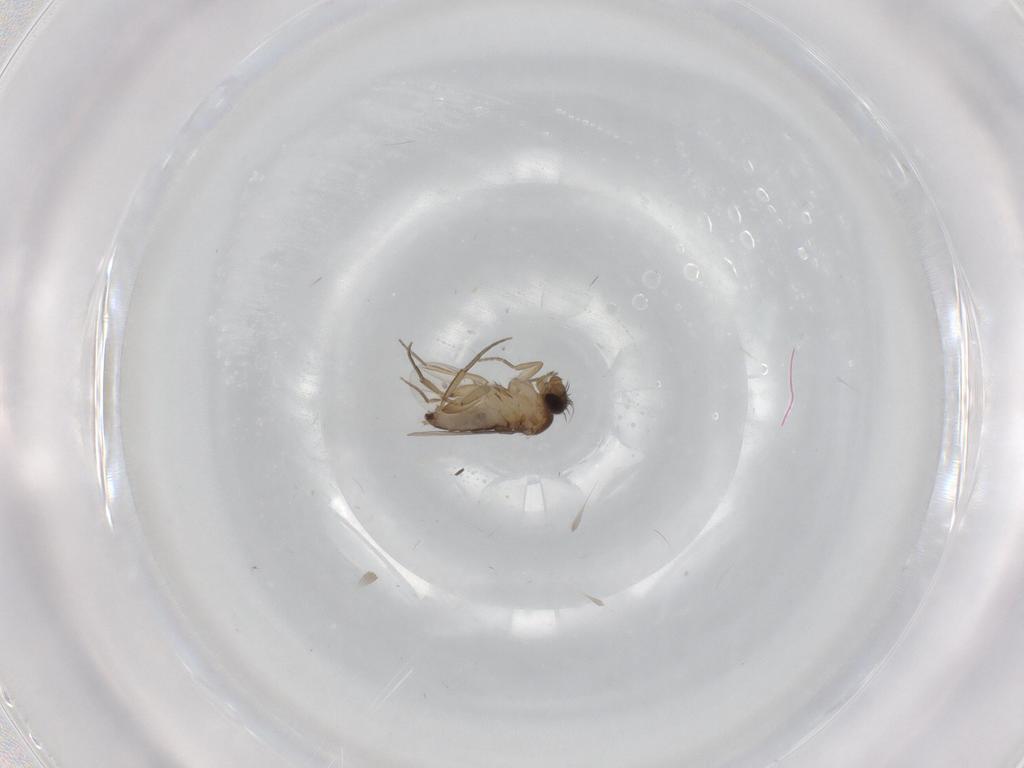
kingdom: Animalia
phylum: Arthropoda
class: Insecta
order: Diptera
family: Phoridae
